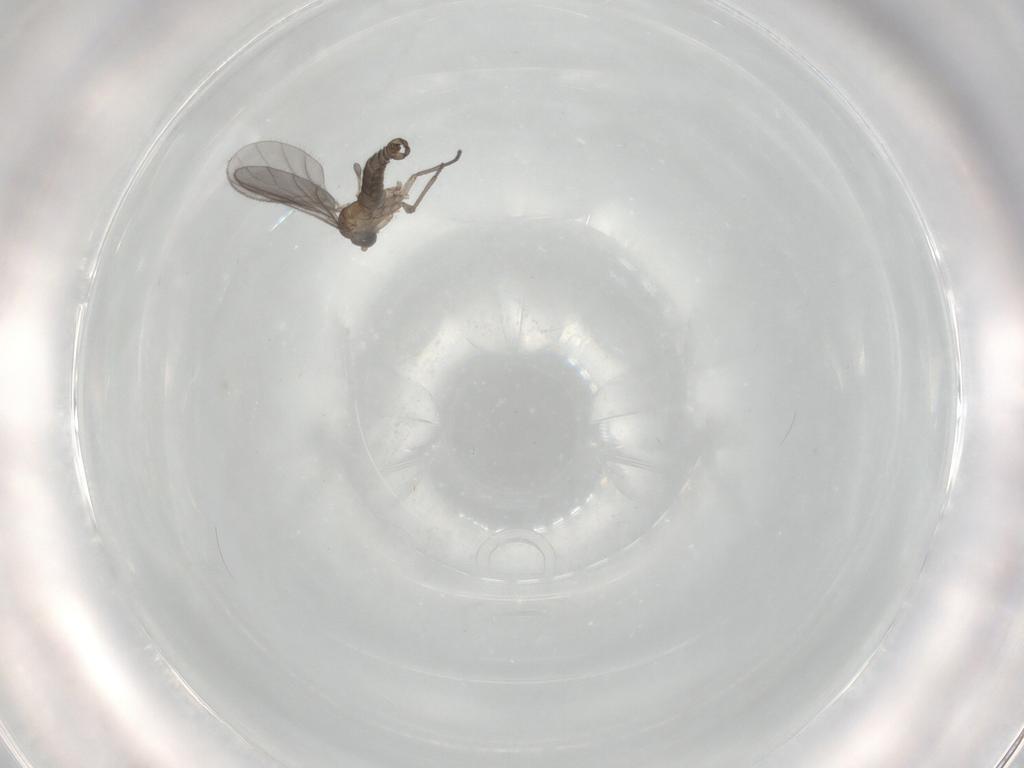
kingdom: Animalia
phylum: Arthropoda
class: Insecta
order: Diptera
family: Sciaridae
